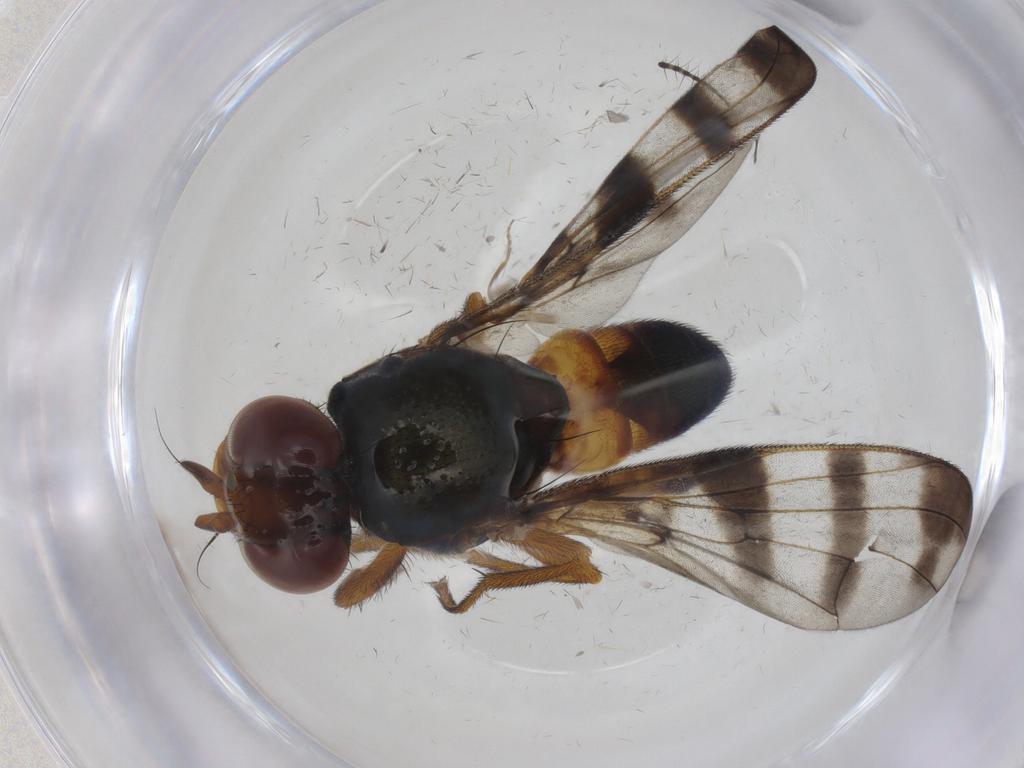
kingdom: Animalia
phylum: Arthropoda
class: Insecta
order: Diptera
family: Platystomatidae
